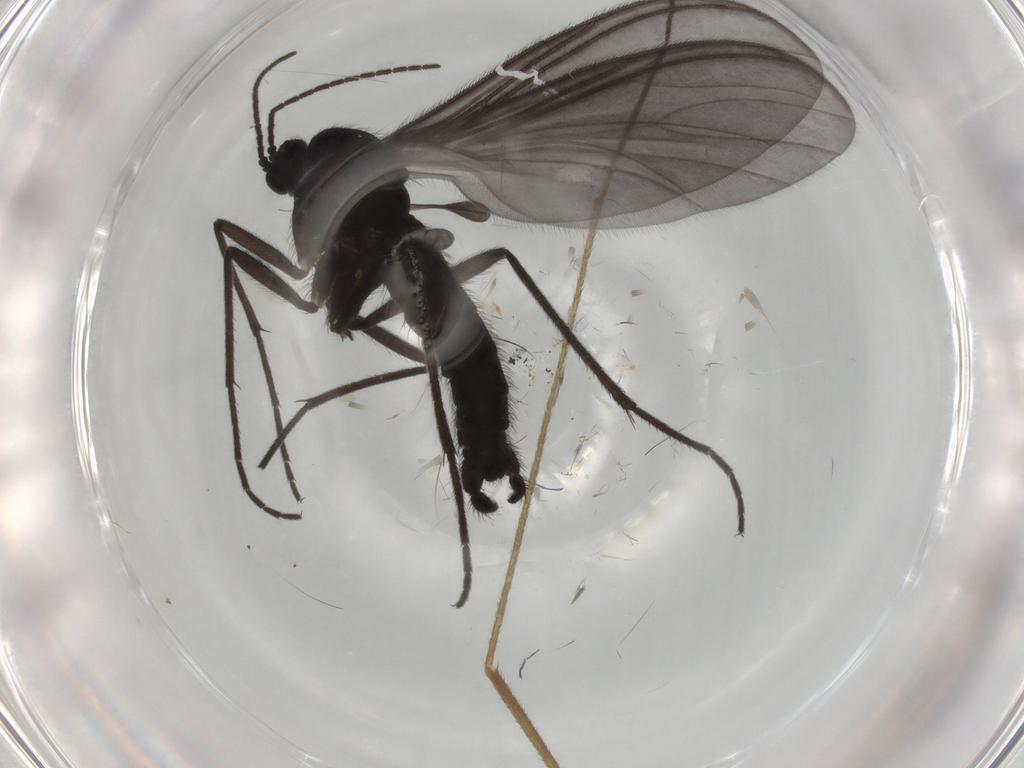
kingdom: Animalia
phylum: Arthropoda
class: Insecta
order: Diptera
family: Sciaridae
